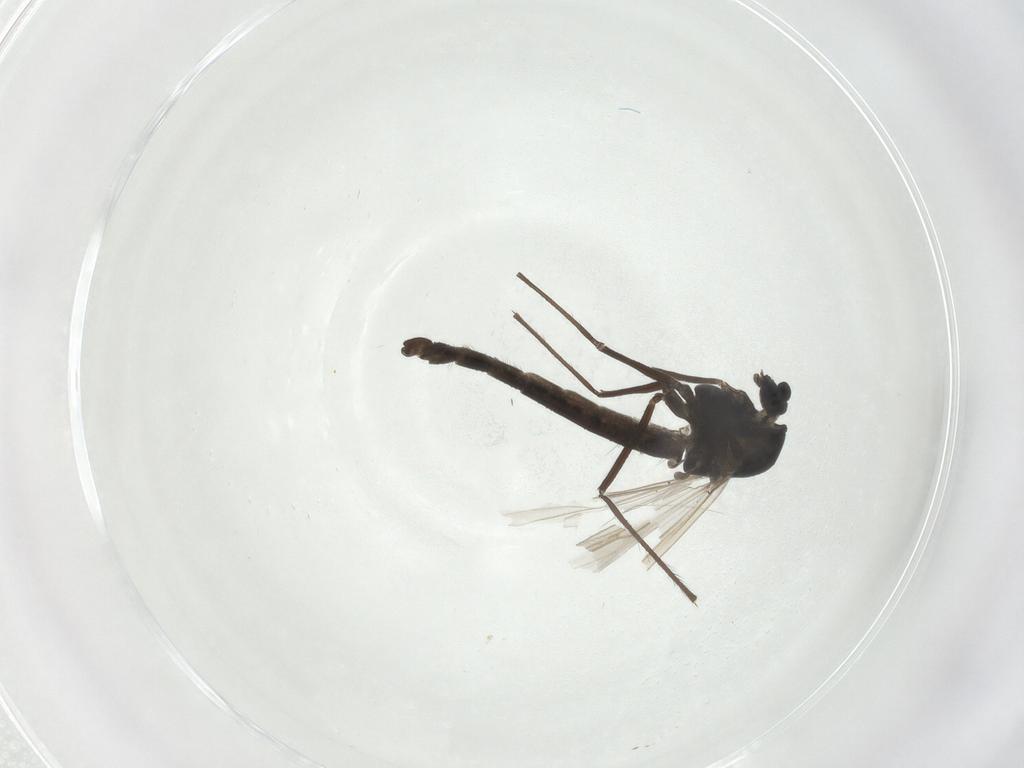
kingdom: Animalia
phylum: Arthropoda
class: Insecta
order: Diptera
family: Chironomidae
